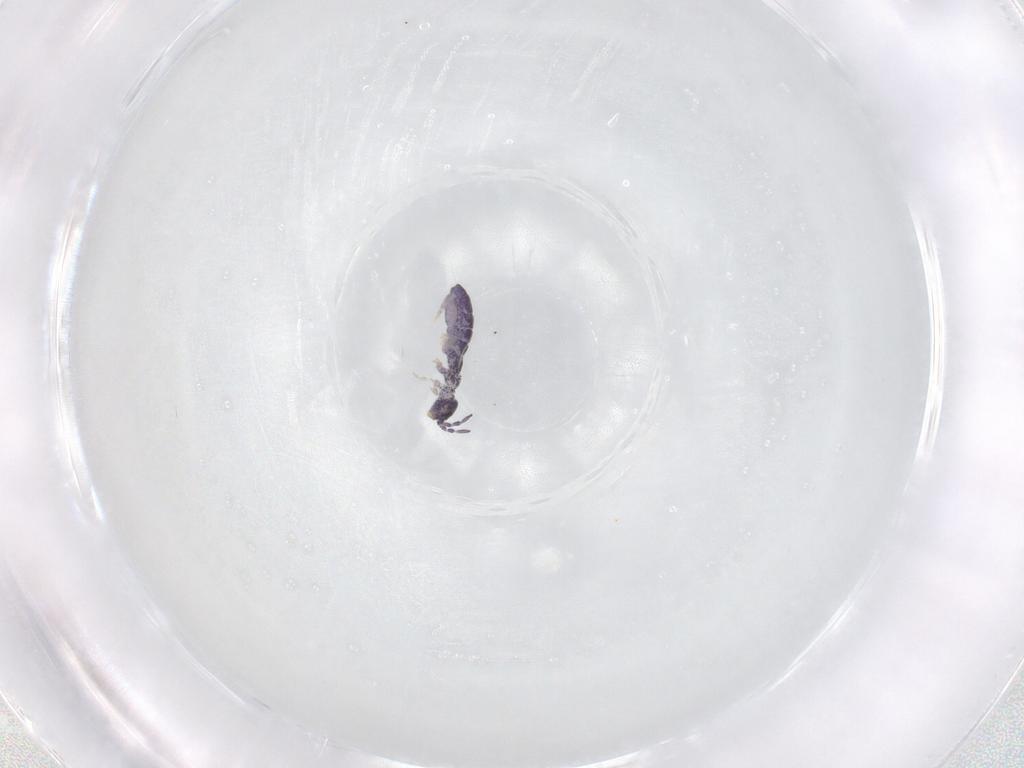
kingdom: Animalia
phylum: Arthropoda
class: Collembola
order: Entomobryomorpha
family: Isotomidae
